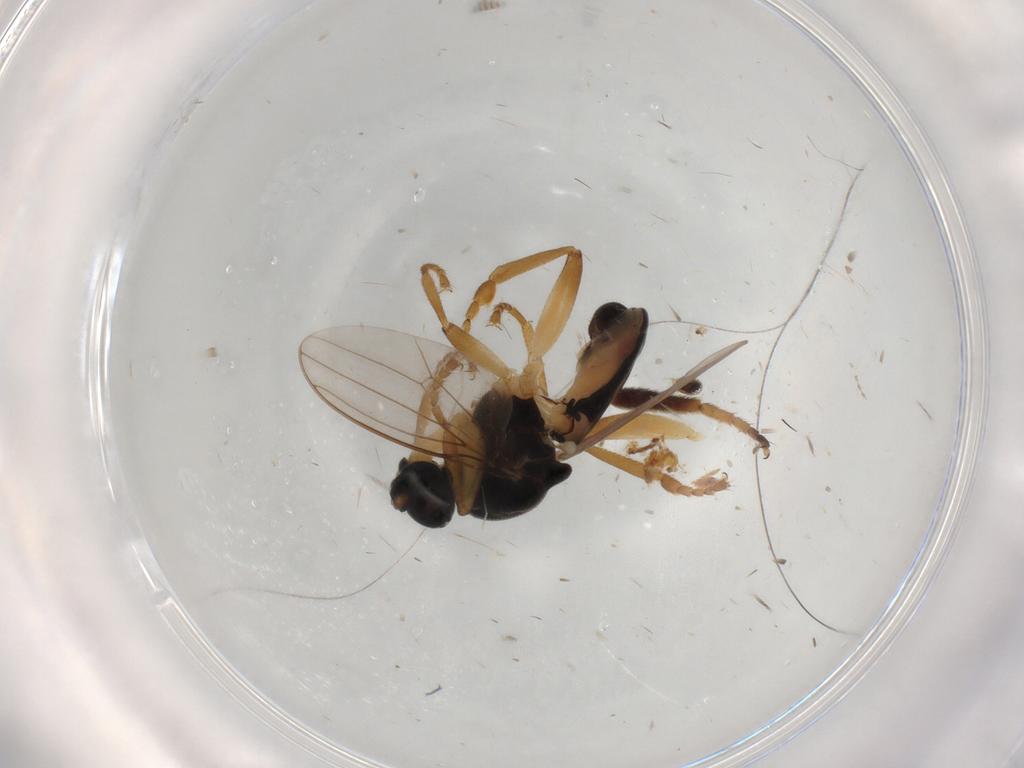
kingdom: Animalia
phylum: Arthropoda
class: Insecta
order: Diptera
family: Syrphidae
